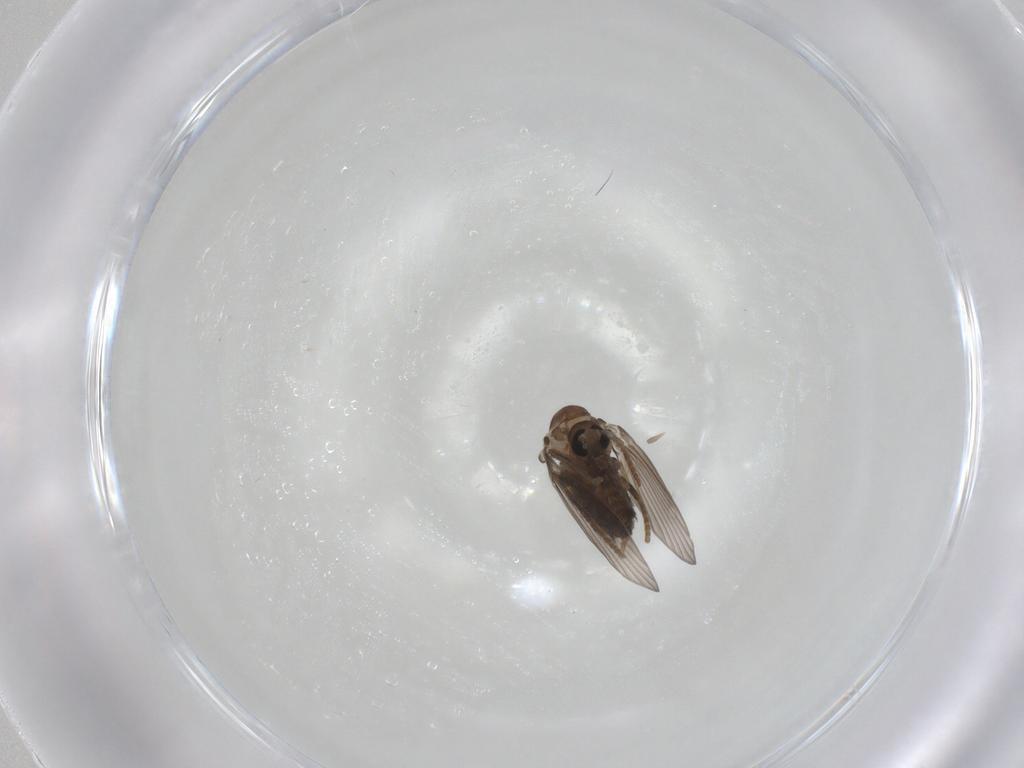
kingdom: Animalia
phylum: Arthropoda
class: Insecta
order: Diptera
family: Psychodidae
